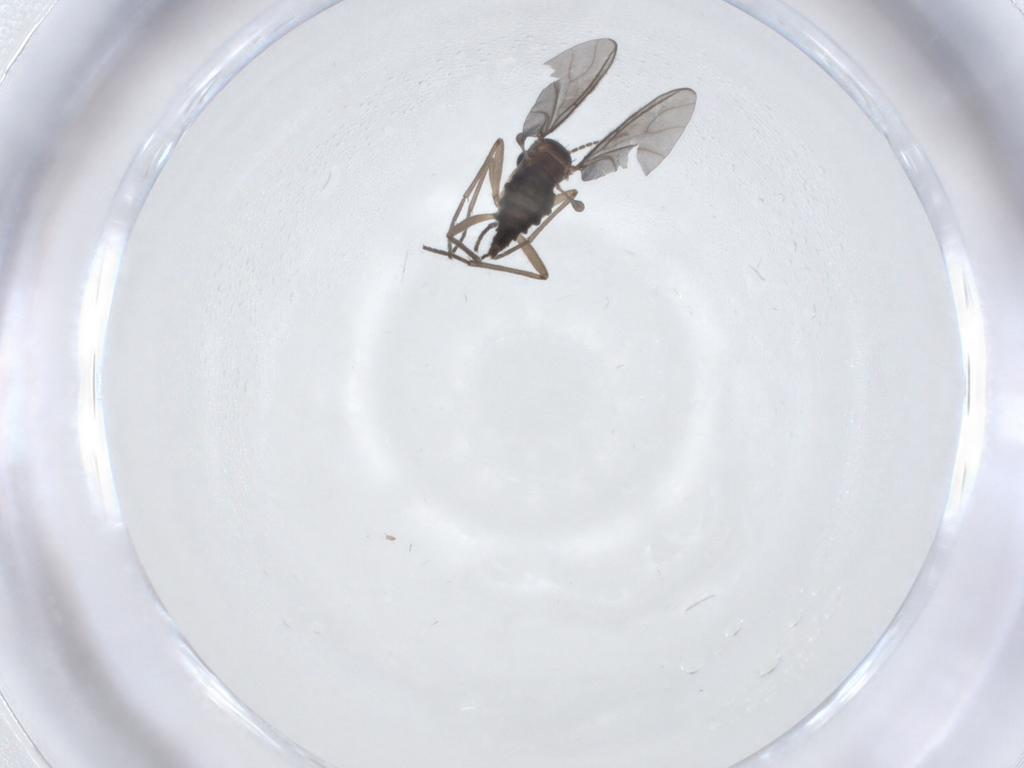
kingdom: Animalia
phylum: Arthropoda
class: Insecta
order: Diptera
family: Sciaridae
